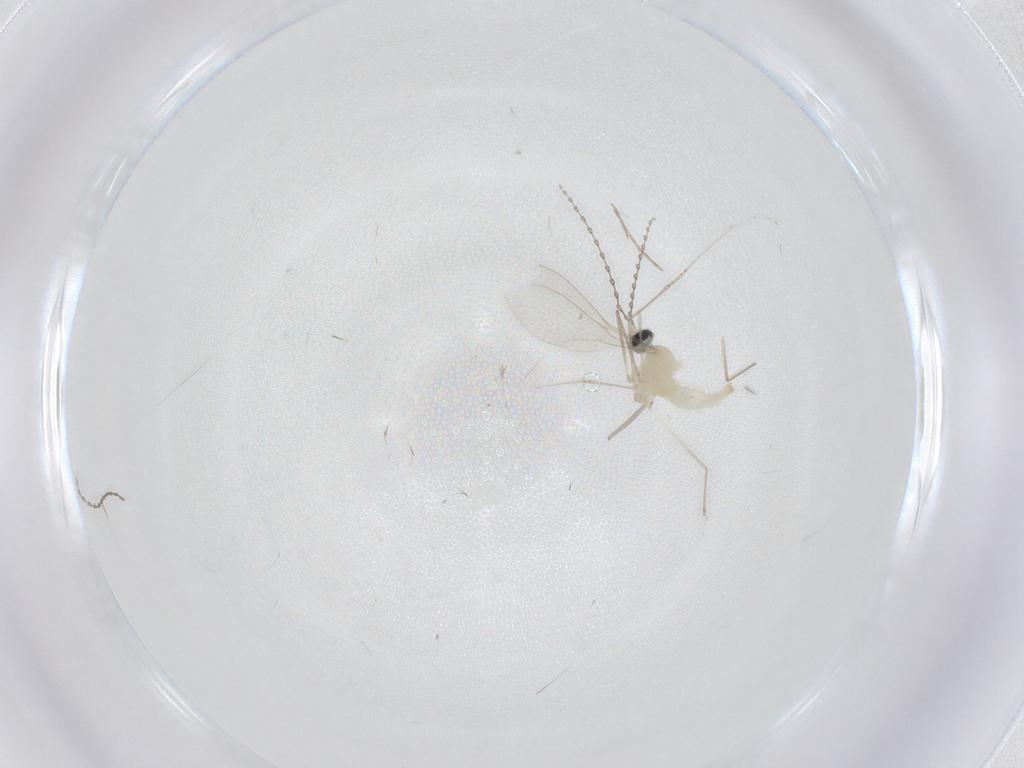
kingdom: Animalia
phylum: Arthropoda
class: Insecta
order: Diptera
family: Cecidomyiidae
